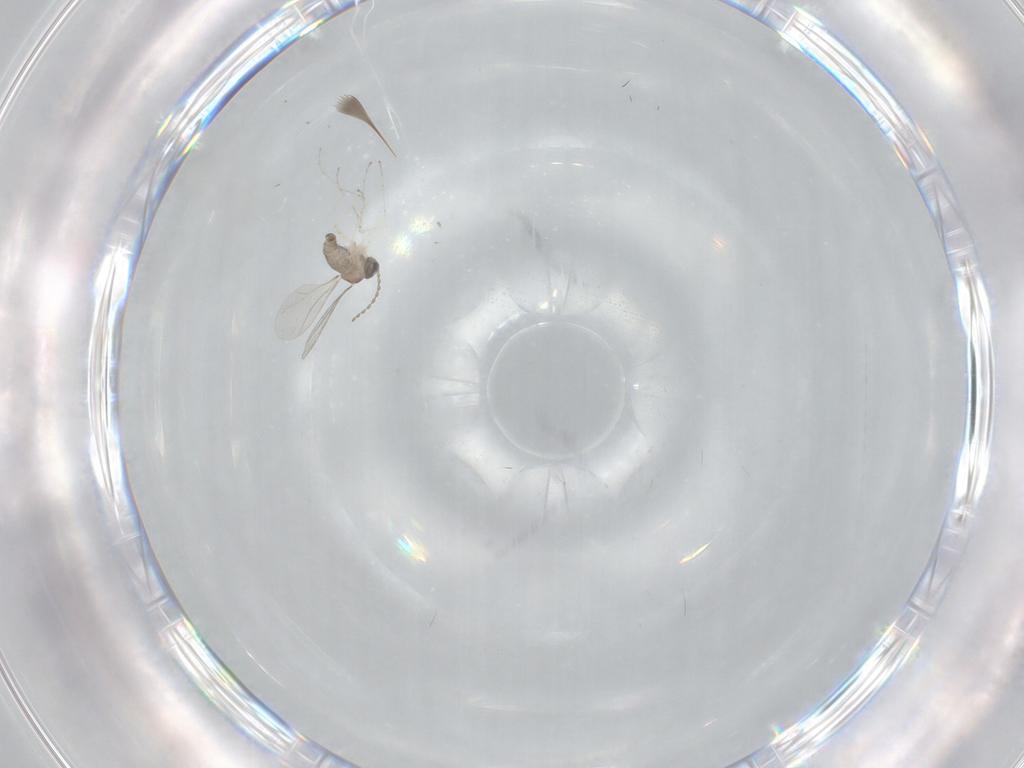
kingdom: Animalia
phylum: Arthropoda
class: Insecta
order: Diptera
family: Cecidomyiidae
